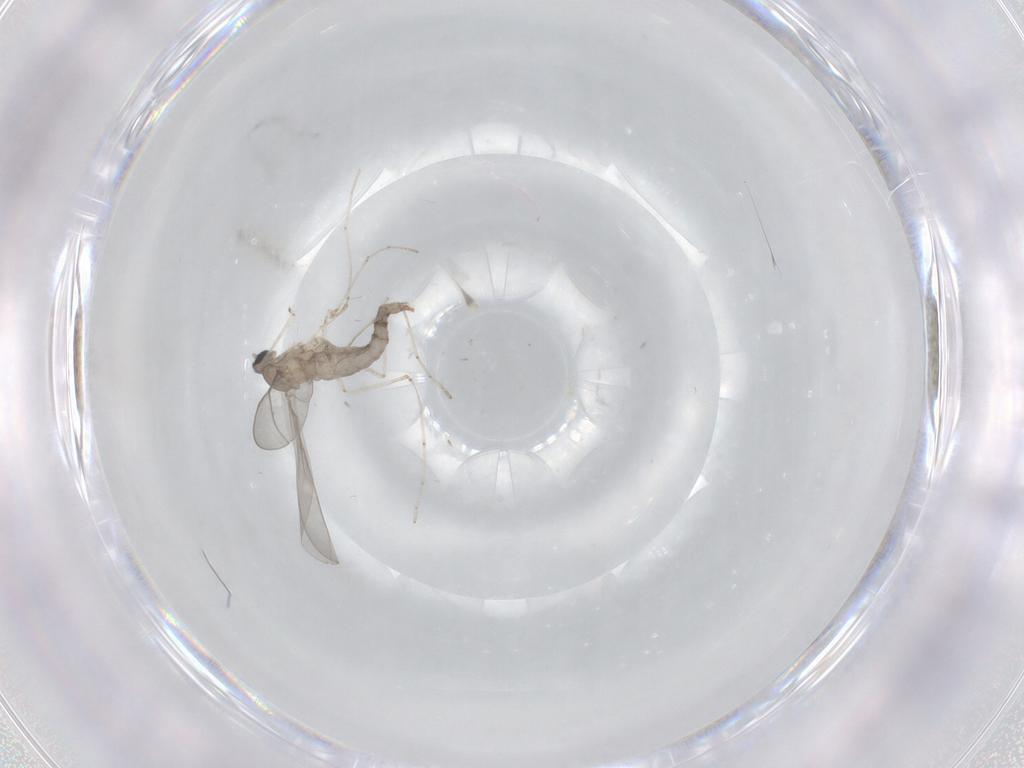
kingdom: Animalia
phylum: Arthropoda
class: Insecta
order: Diptera
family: Cecidomyiidae
